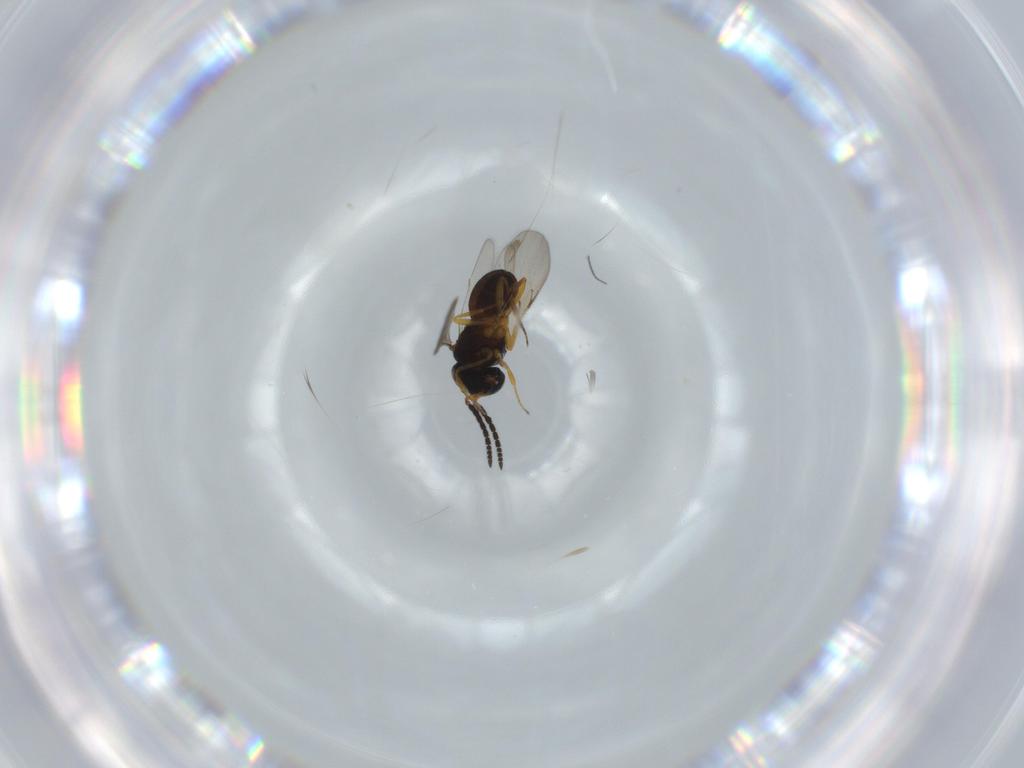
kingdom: Animalia
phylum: Arthropoda
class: Insecta
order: Coleoptera
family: Curculionidae
